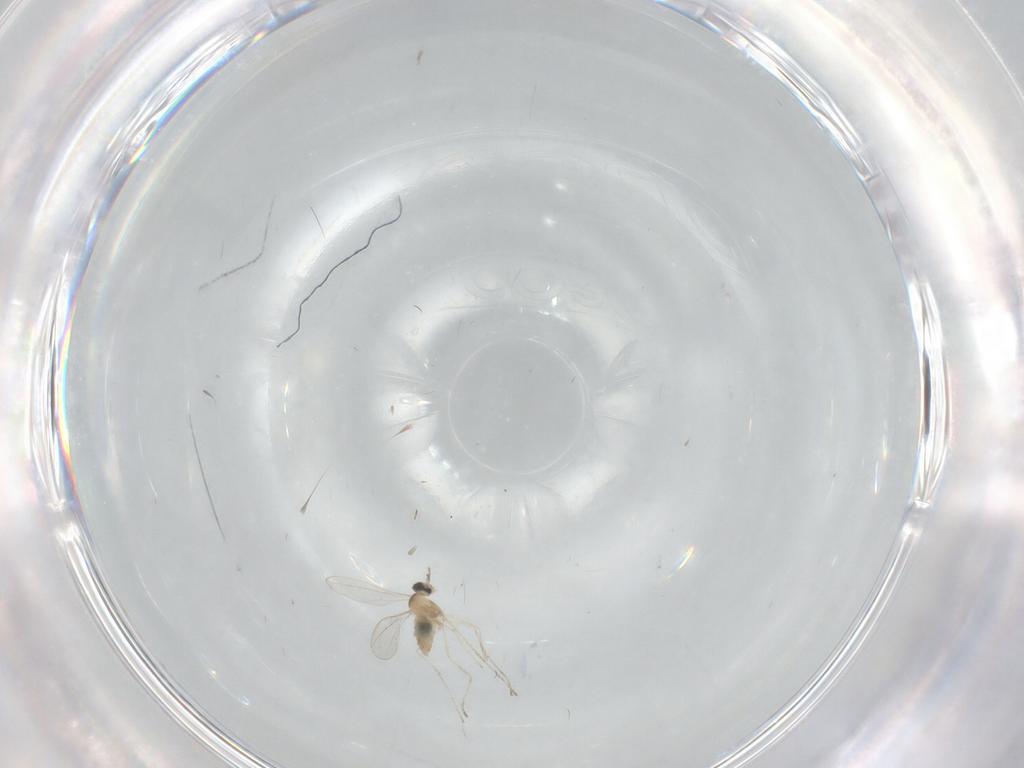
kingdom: Animalia
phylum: Arthropoda
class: Insecta
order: Diptera
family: Cecidomyiidae
